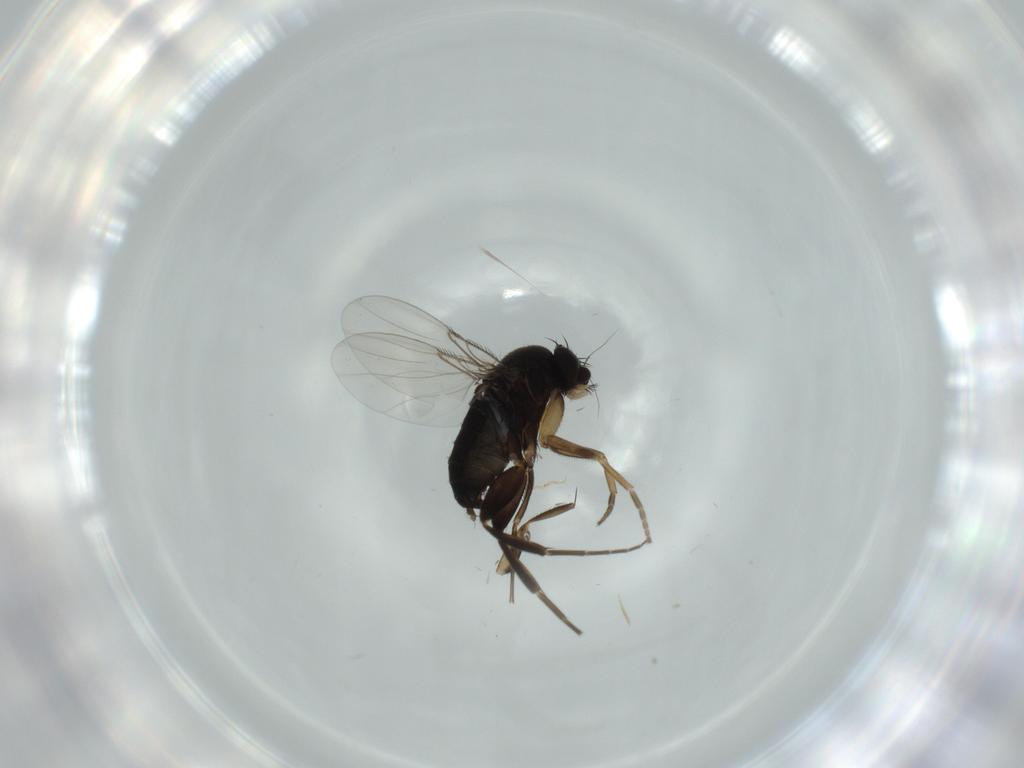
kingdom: Animalia
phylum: Arthropoda
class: Insecta
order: Diptera
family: Phoridae
